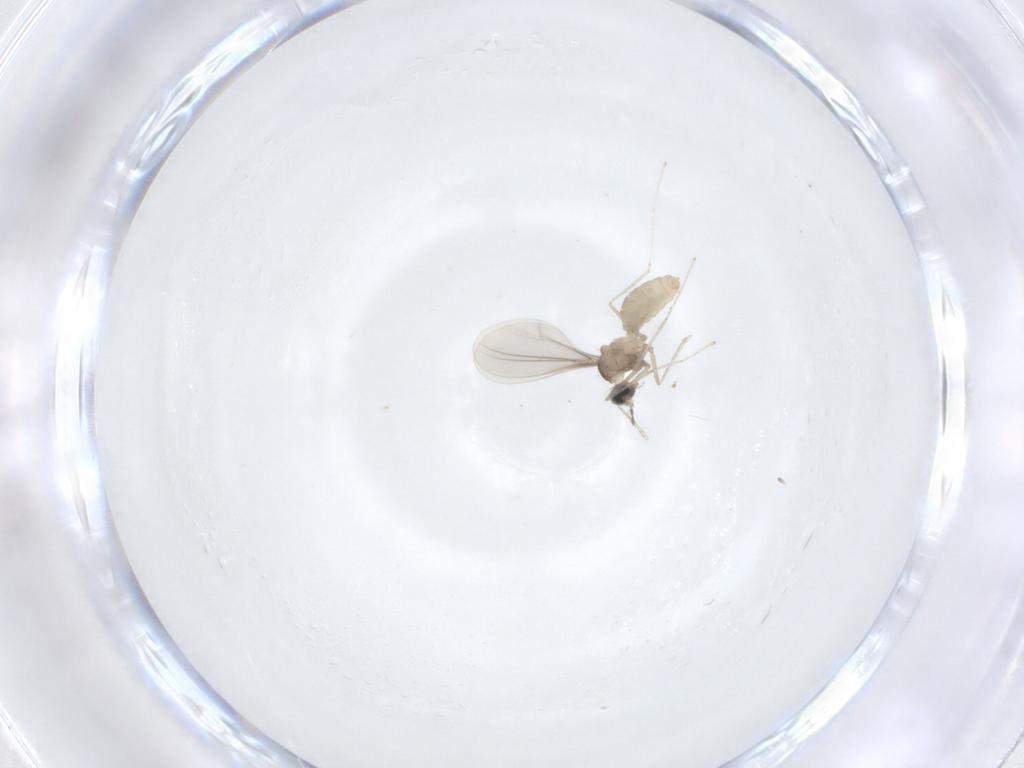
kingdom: Animalia
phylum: Arthropoda
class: Insecta
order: Diptera
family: Cecidomyiidae
